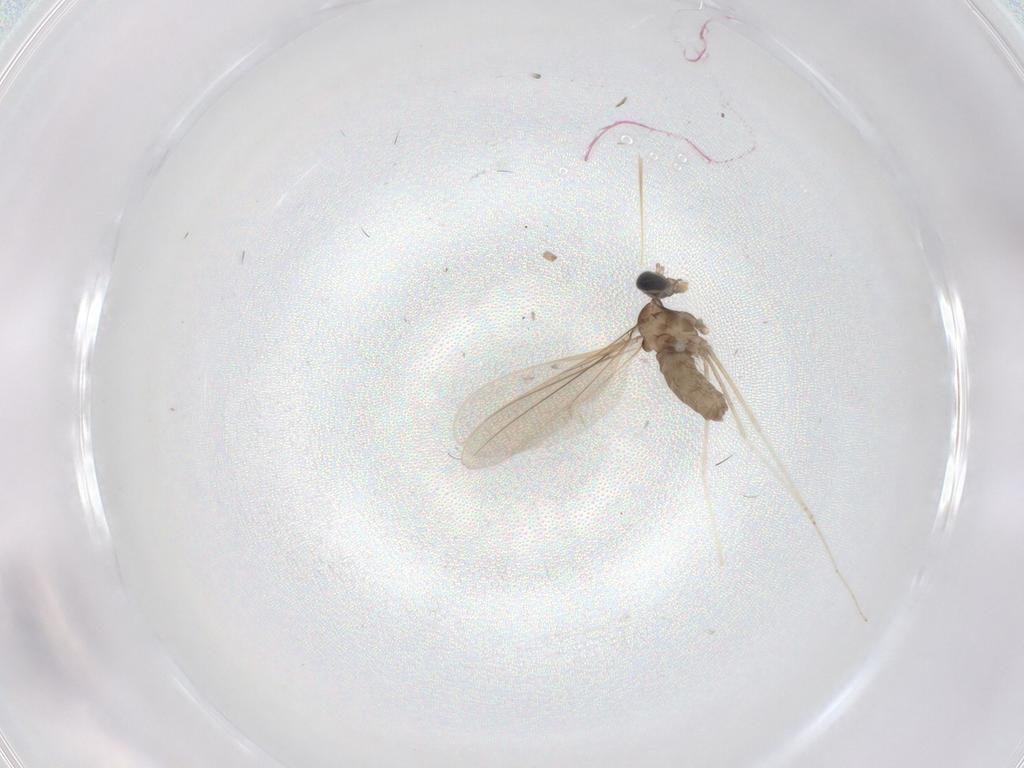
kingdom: Animalia
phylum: Arthropoda
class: Insecta
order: Diptera
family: Cecidomyiidae
